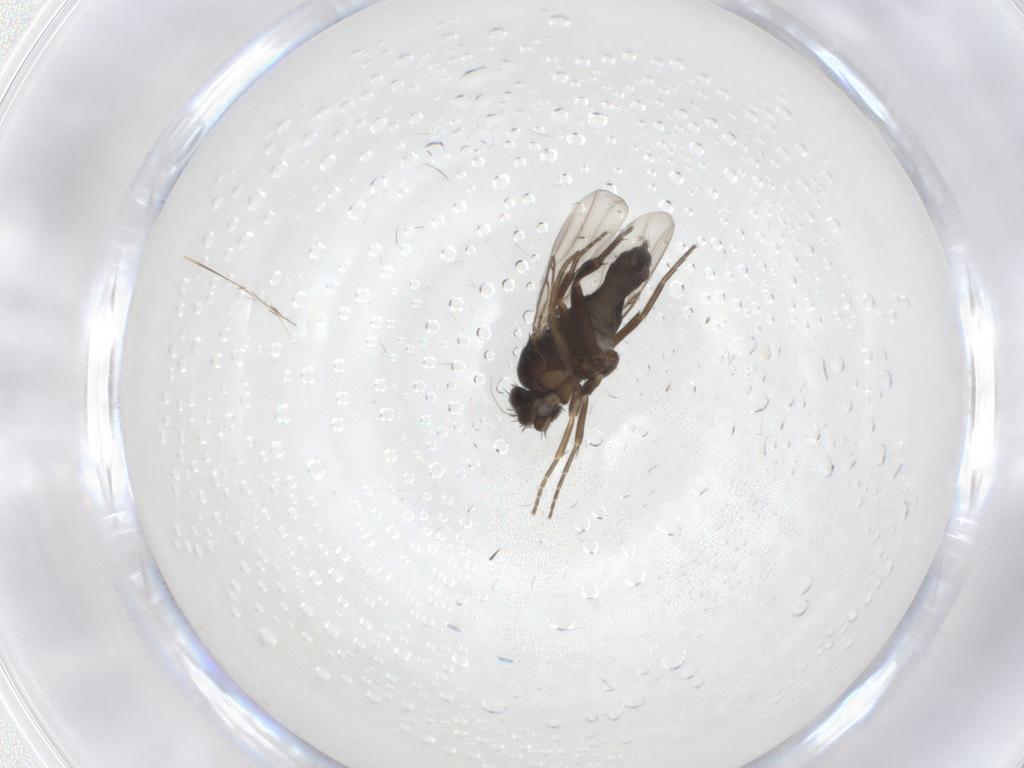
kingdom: Animalia
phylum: Arthropoda
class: Insecta
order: Diptera
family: Phoridae
